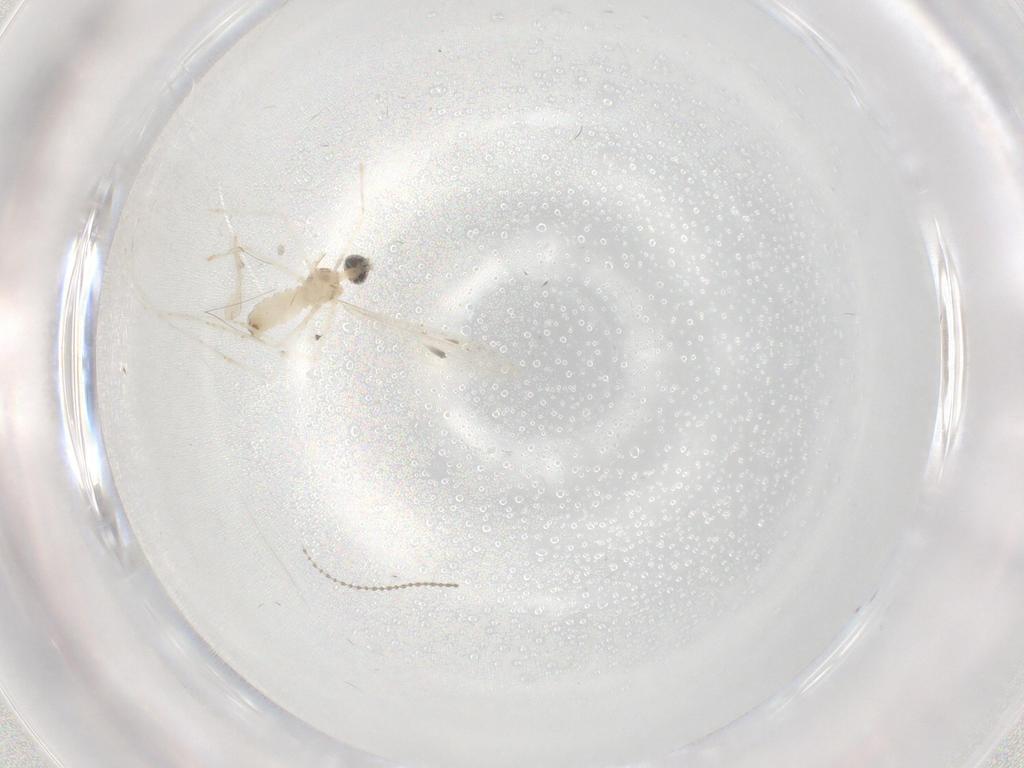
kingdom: Animalia
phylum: Arthropoda
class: Insecta
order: Diptera
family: Cecidomyiidae
